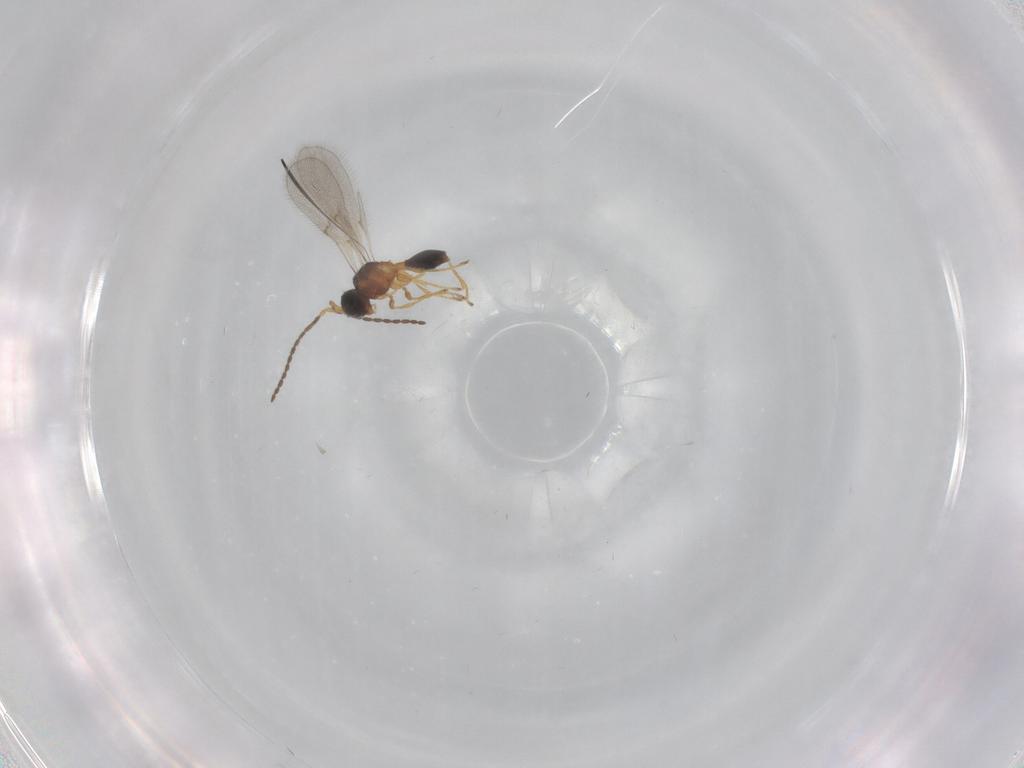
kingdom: Animalia
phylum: Arthropoda
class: Insecta
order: Hymenoptera
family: Diapriidae
